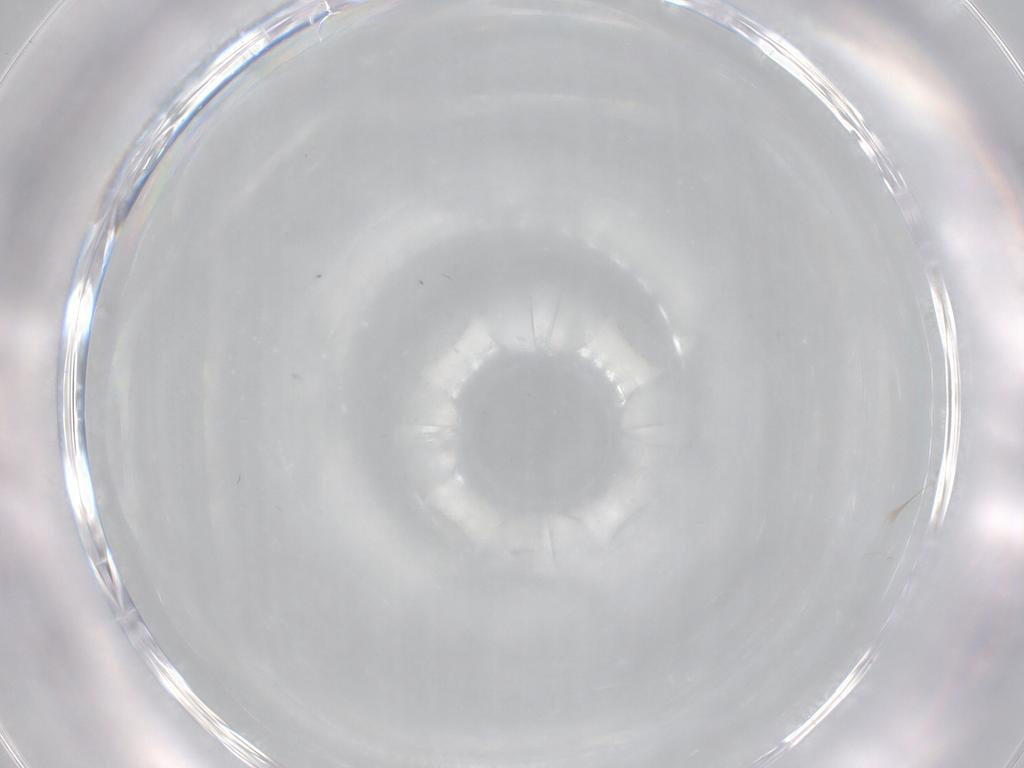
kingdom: Animalia
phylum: Arthropoda
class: Insecta
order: Diptera
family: Cecidomyiidae
